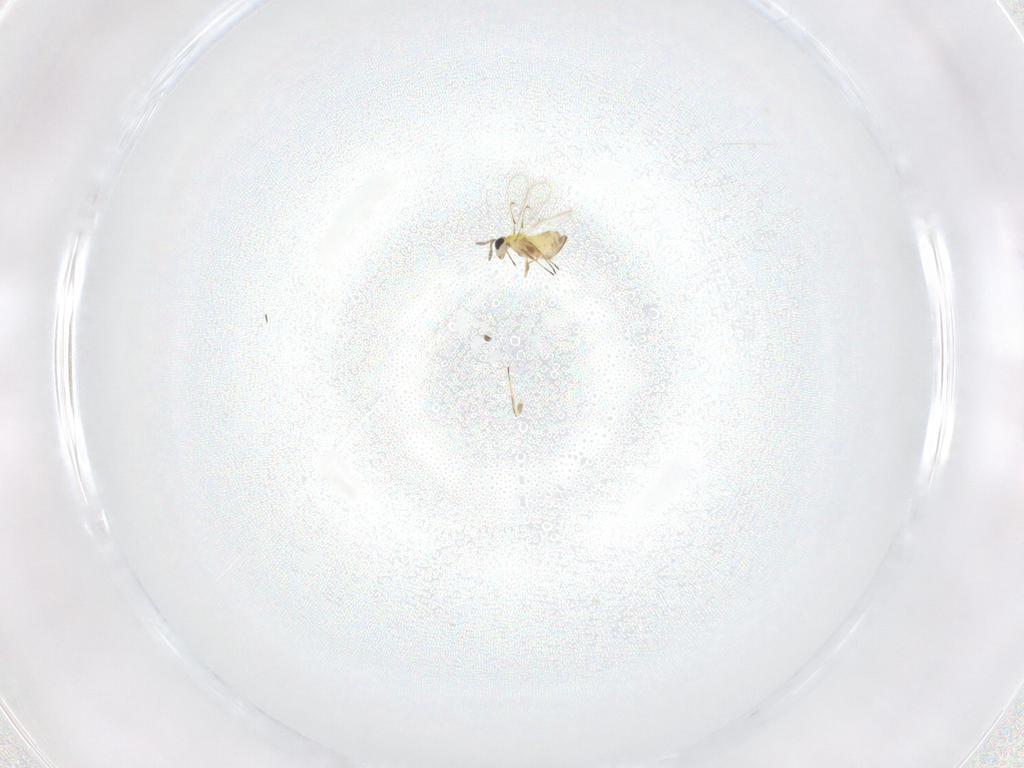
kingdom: Animalia
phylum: Arthropoda
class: Insecta
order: Hymenoptera
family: Trichogrammatidae
